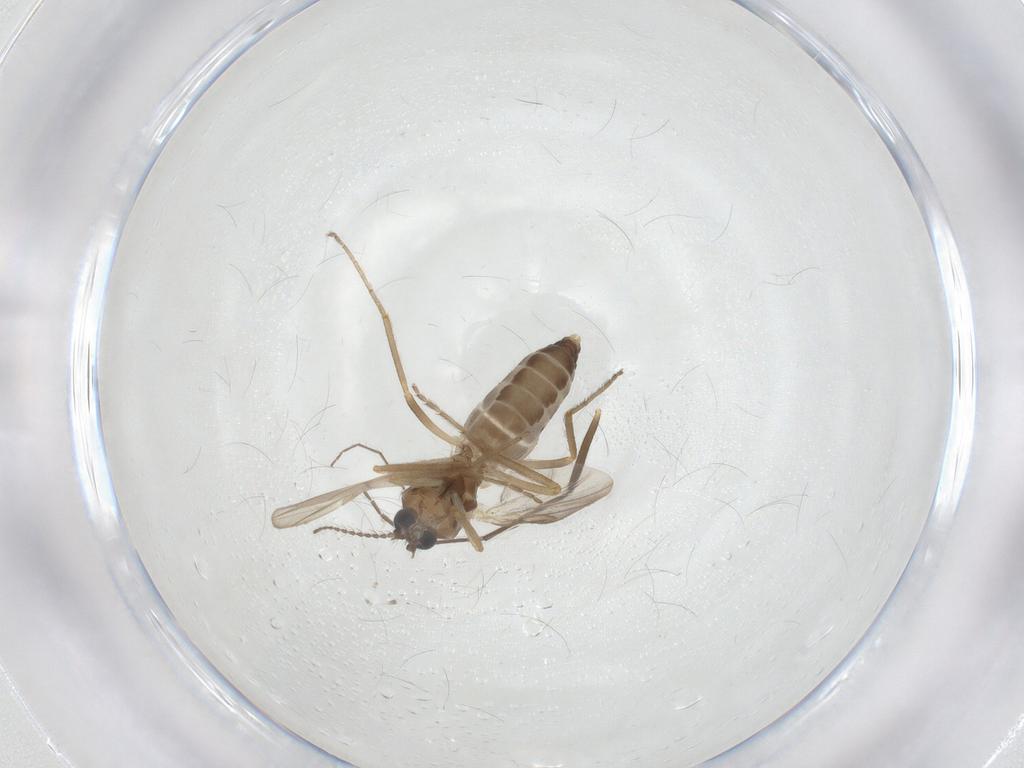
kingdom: Animalia
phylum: Arthropoda
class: Insecta
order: Diptera
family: Ceratopogonidae
